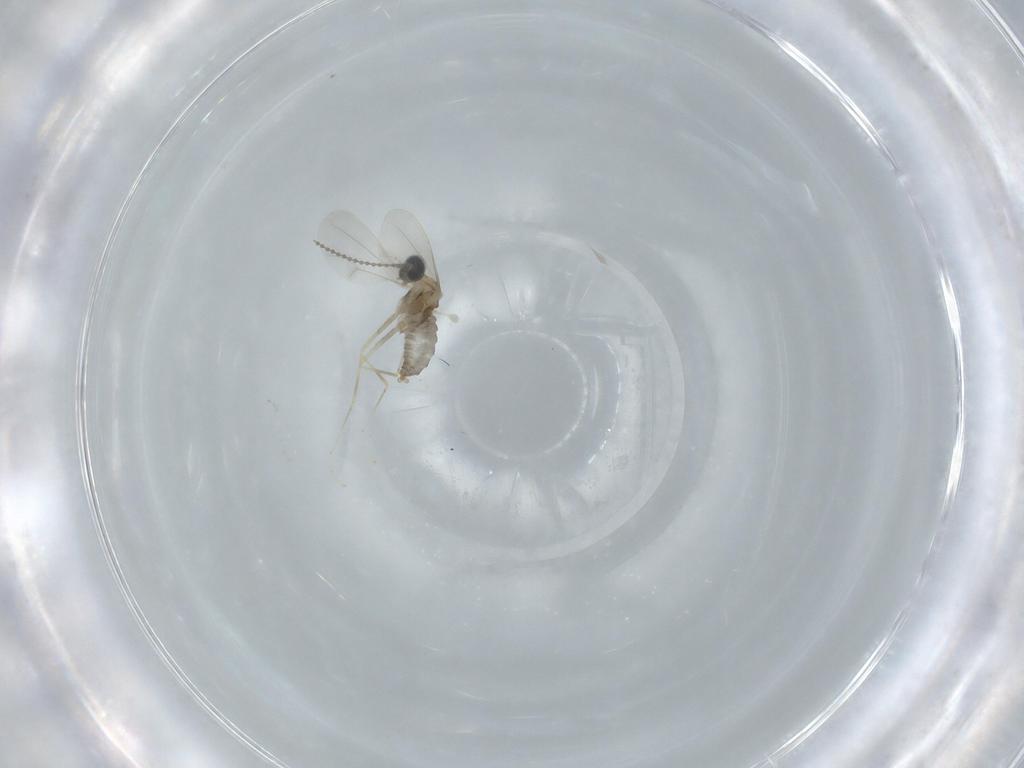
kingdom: Animalia
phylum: Arthropoda
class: Insecta
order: Diptera
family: Cecidomyiidae
